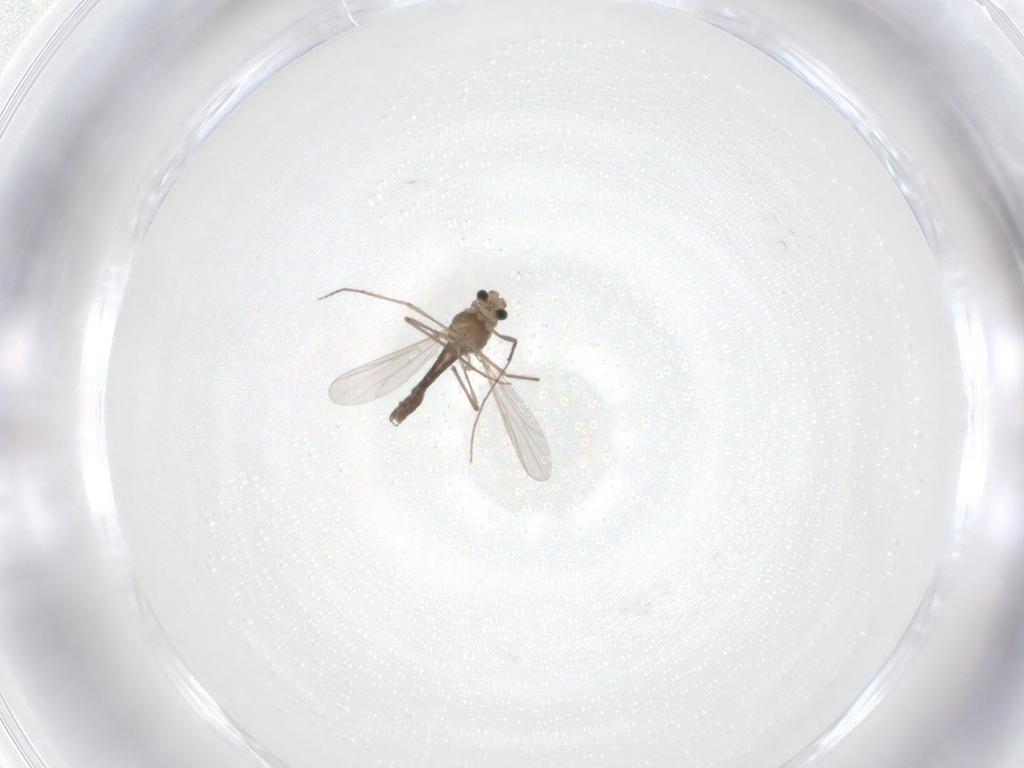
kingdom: Animalia
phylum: Arthropoda
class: Insecta
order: Diptera
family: Chironomidae
